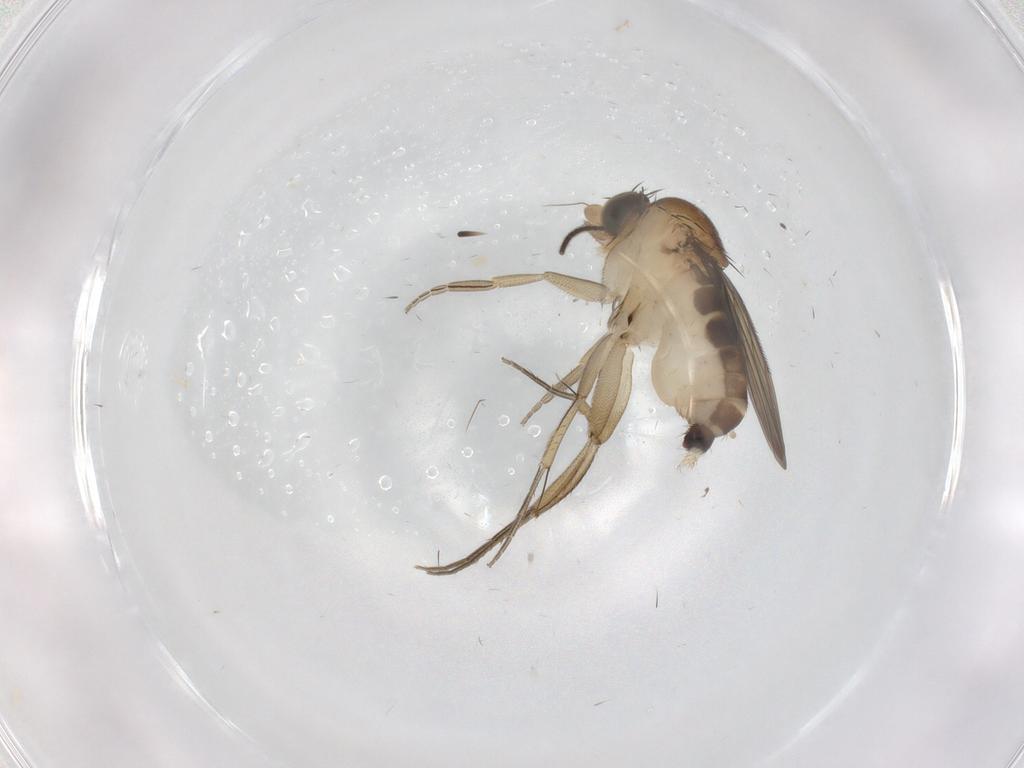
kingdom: Animalia
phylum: Arthropoda
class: Insecta
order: Diptera
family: Phoridae
